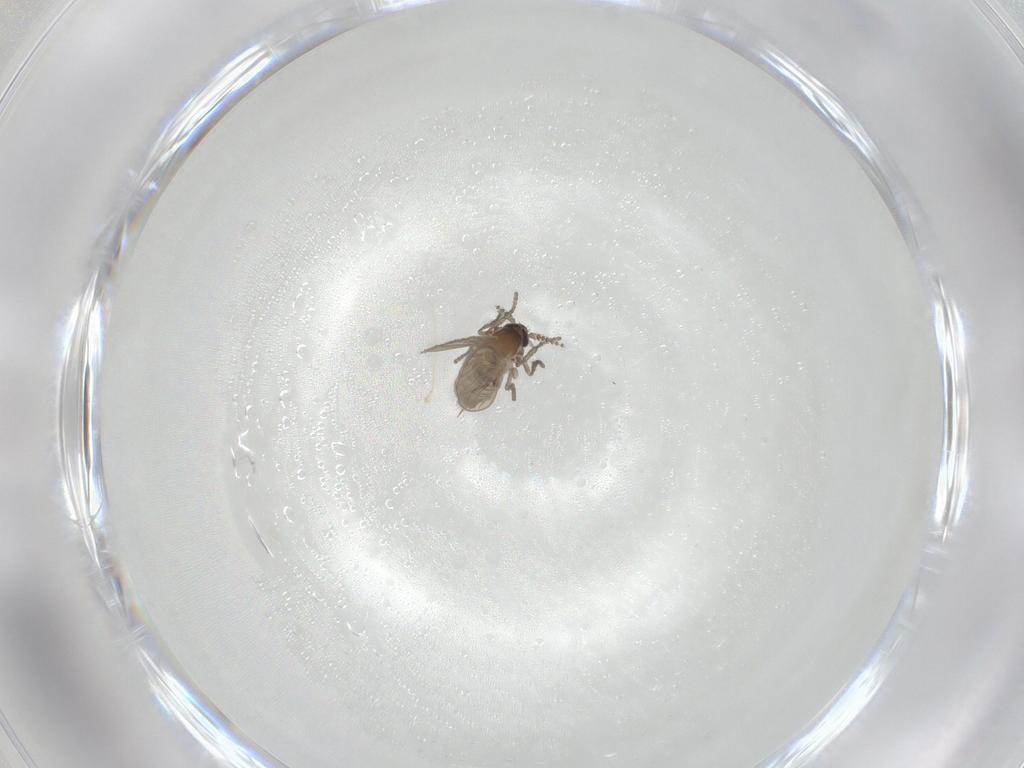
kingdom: Animalia
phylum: Arthropoda
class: Insecta
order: Diptera
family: Psychodidae
